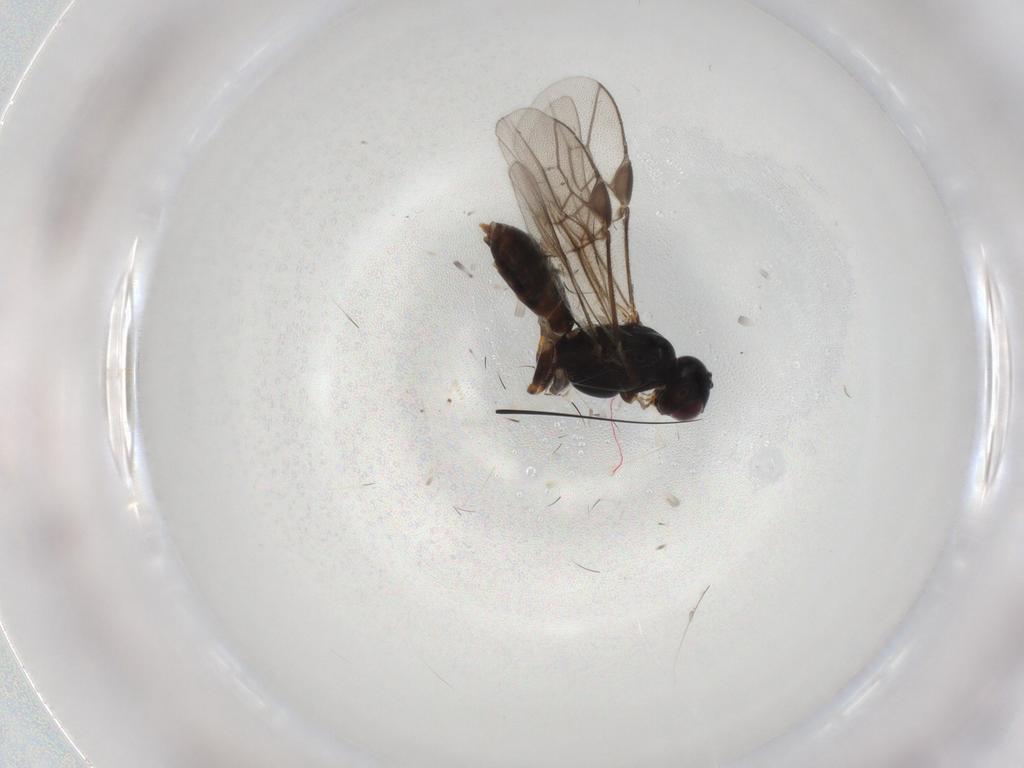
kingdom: Animalia
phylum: Arthropoda
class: Insecta
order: Hymenoptera
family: Braconidae
